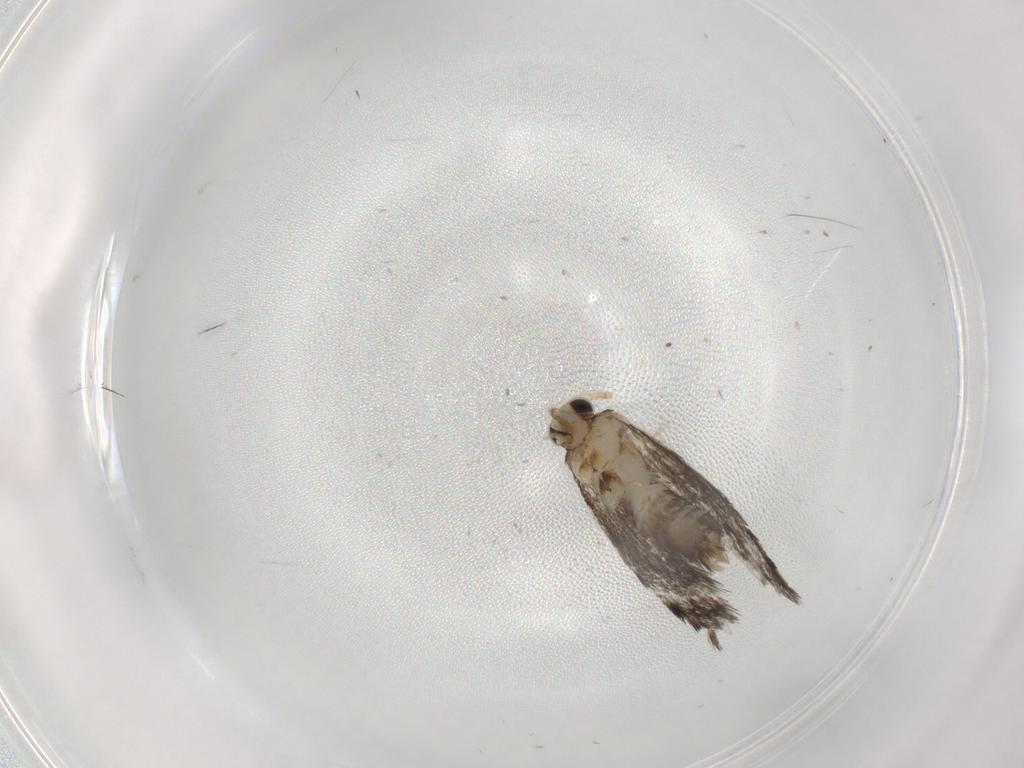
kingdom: Animalia
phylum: Arthropoda
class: Insecta
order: Lepidoptera
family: Tineidae
